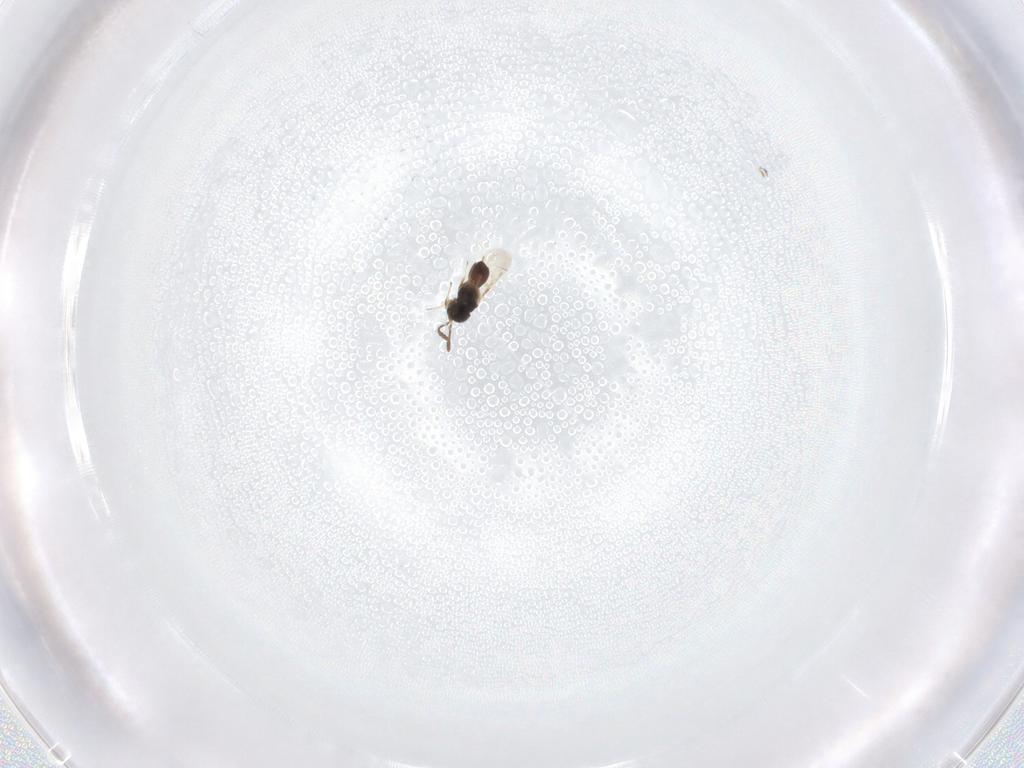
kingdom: Animalia
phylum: Arthropoda
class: Insecta
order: Hymenoptera
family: Scelionidae
